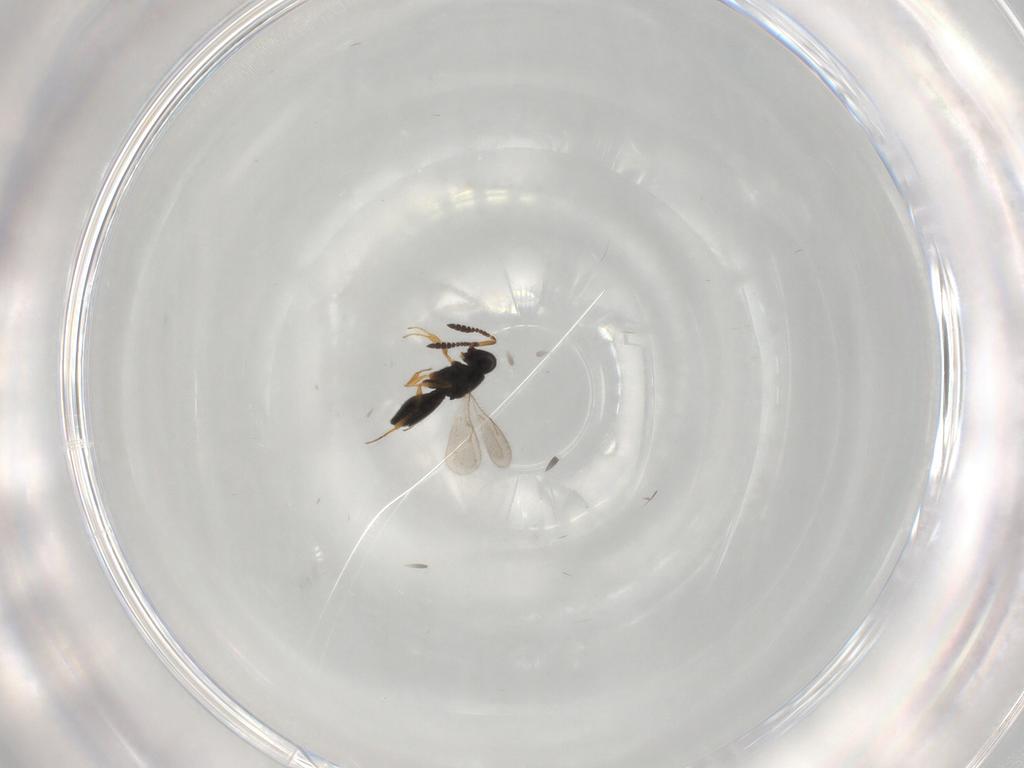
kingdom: Animalia
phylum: Arthropoda
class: Insecta
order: Hymenoptera
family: Scelionidae
